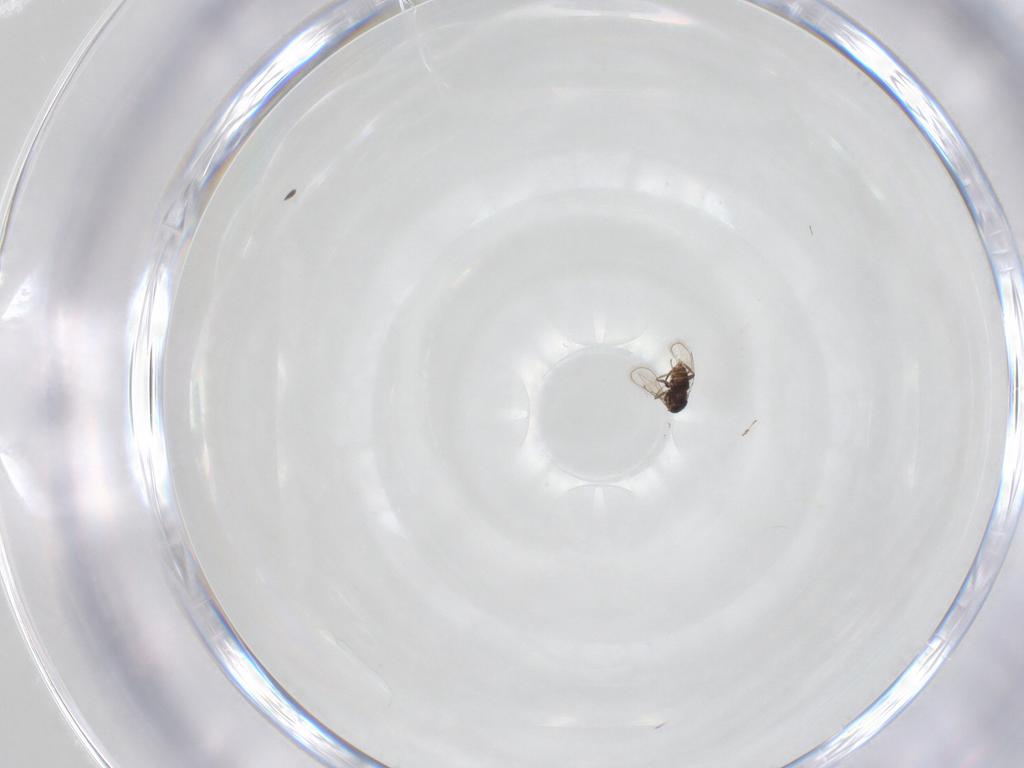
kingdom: Animalia
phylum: Arthropoda
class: Insecta
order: Hymenoptera
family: Eulophidae
